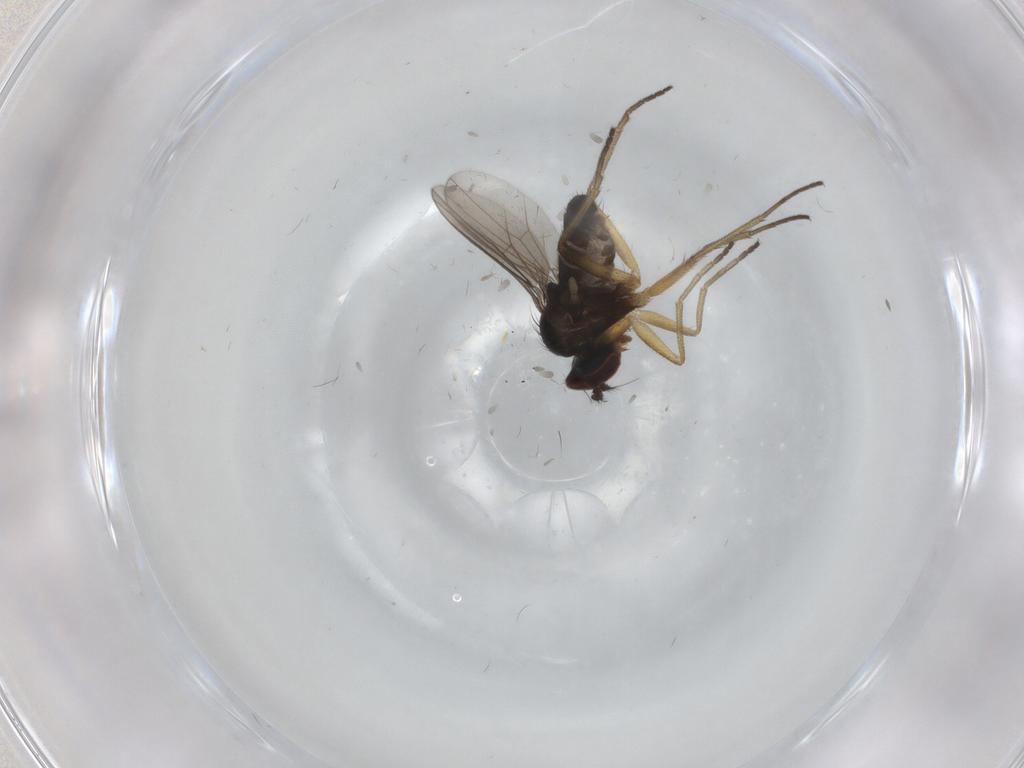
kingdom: Animalia
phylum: Arthropoda
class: Insecta
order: Diptera
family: Dolichopodidae
